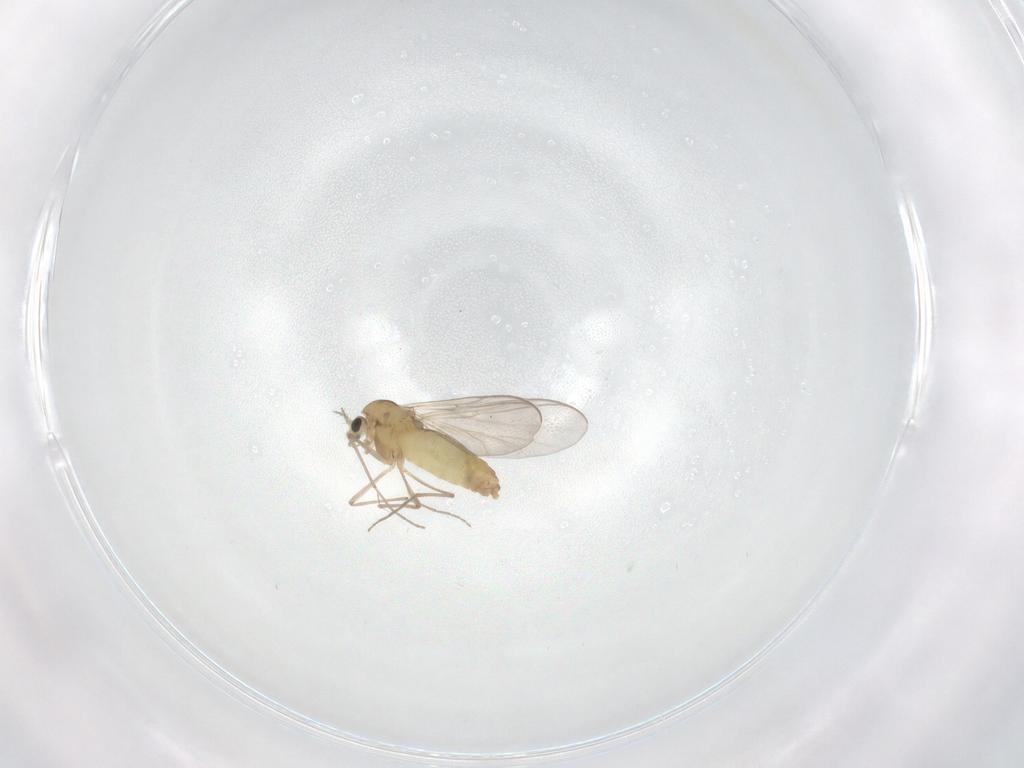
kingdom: Animalia
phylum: Arthropoda
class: Insecta
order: Diptera
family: Chironomidae
